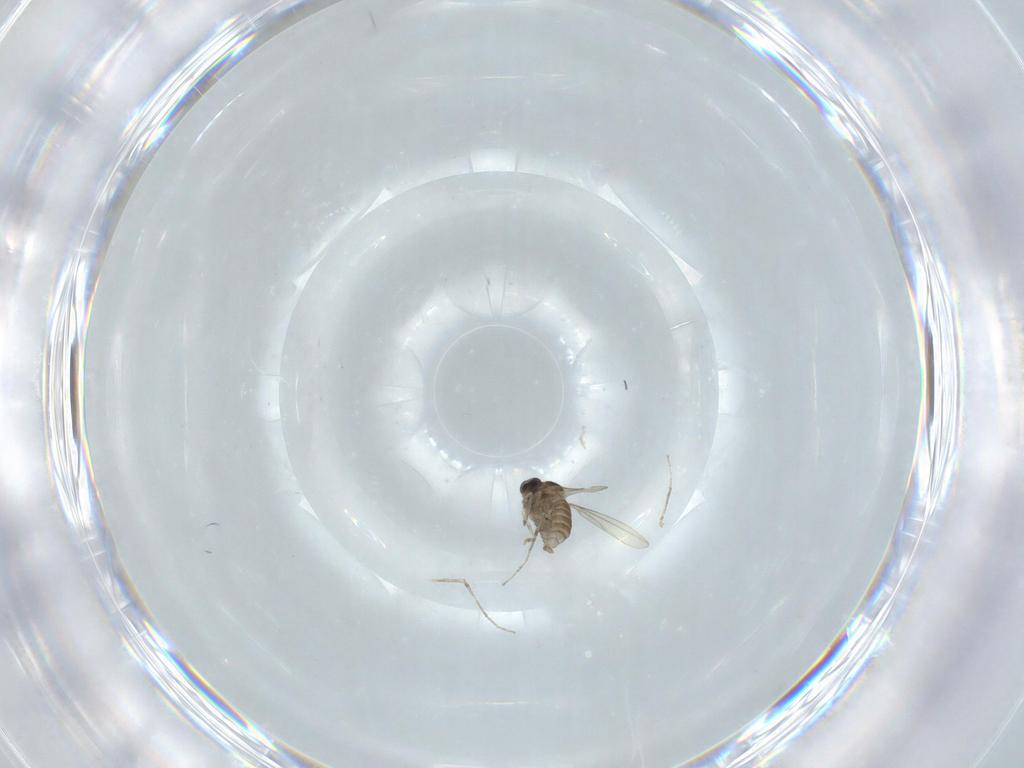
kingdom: Animalia
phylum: Arthropoda
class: Insecta
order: Diptera
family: Cecidomyiidae
